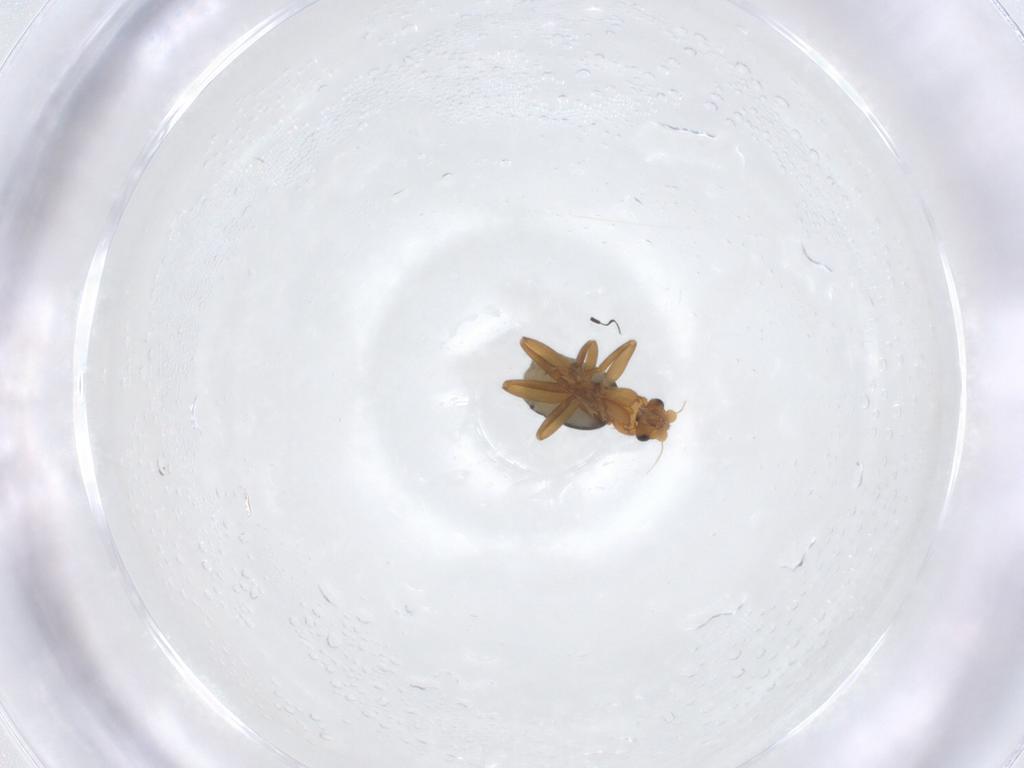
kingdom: Animalia
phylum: Arthropoda
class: Insecta
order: Diptera
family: Phoridae
